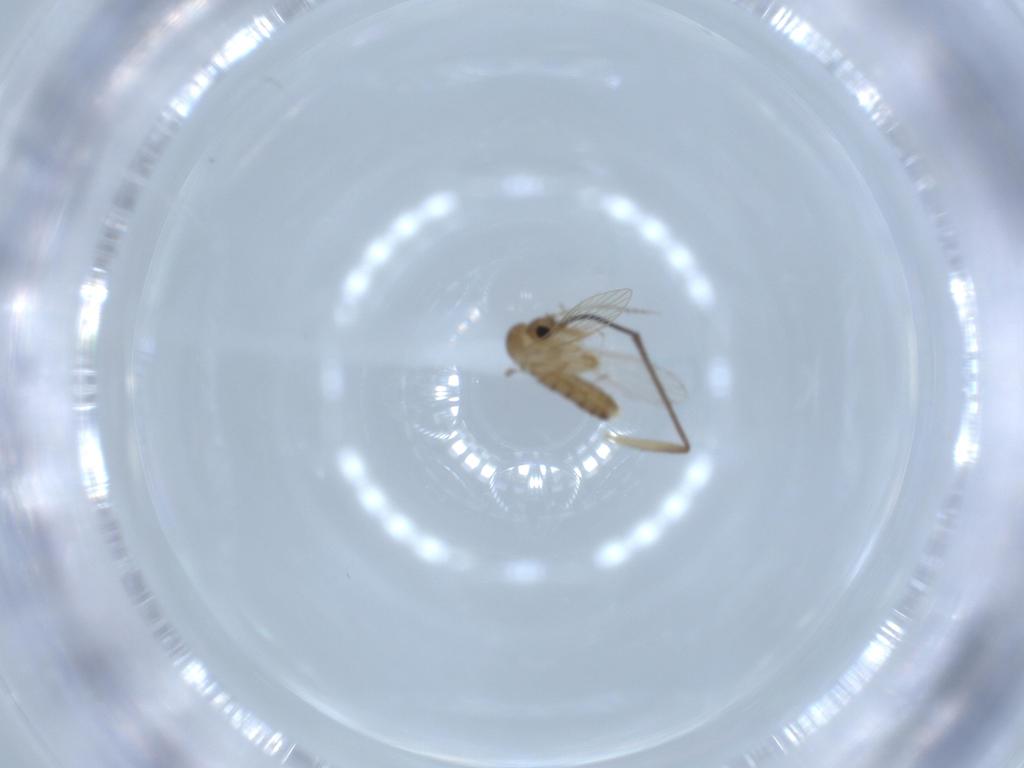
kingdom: Animalia
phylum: Arthropoda
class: Insecta
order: Diptera
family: Psychodidae
